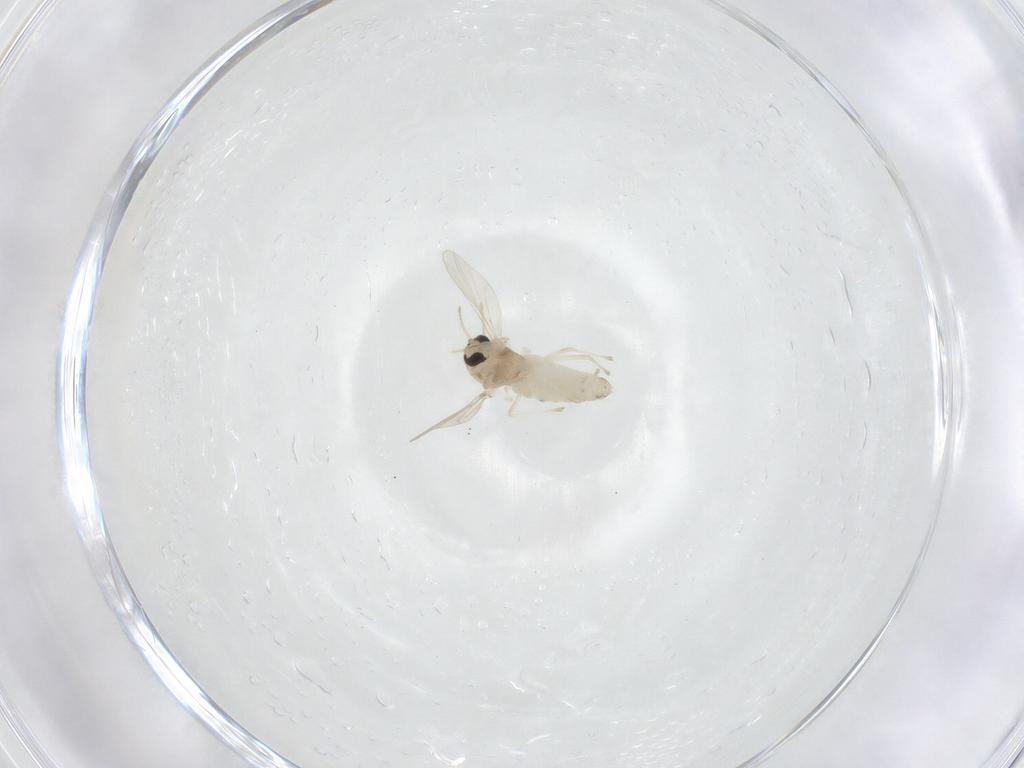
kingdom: Animalia
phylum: Arthropoda
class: Insecta
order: Diptera
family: Chironomidae
